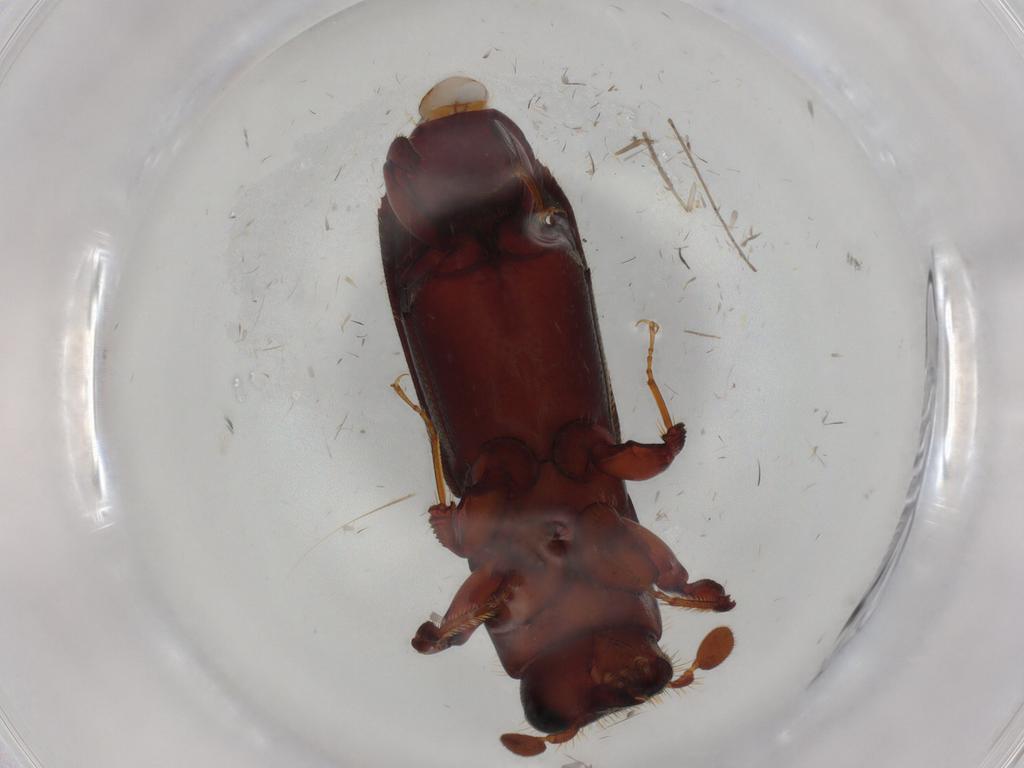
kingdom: Animalia
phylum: Arthropoda
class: Insecta
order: Coleoptera
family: Curculionidae
